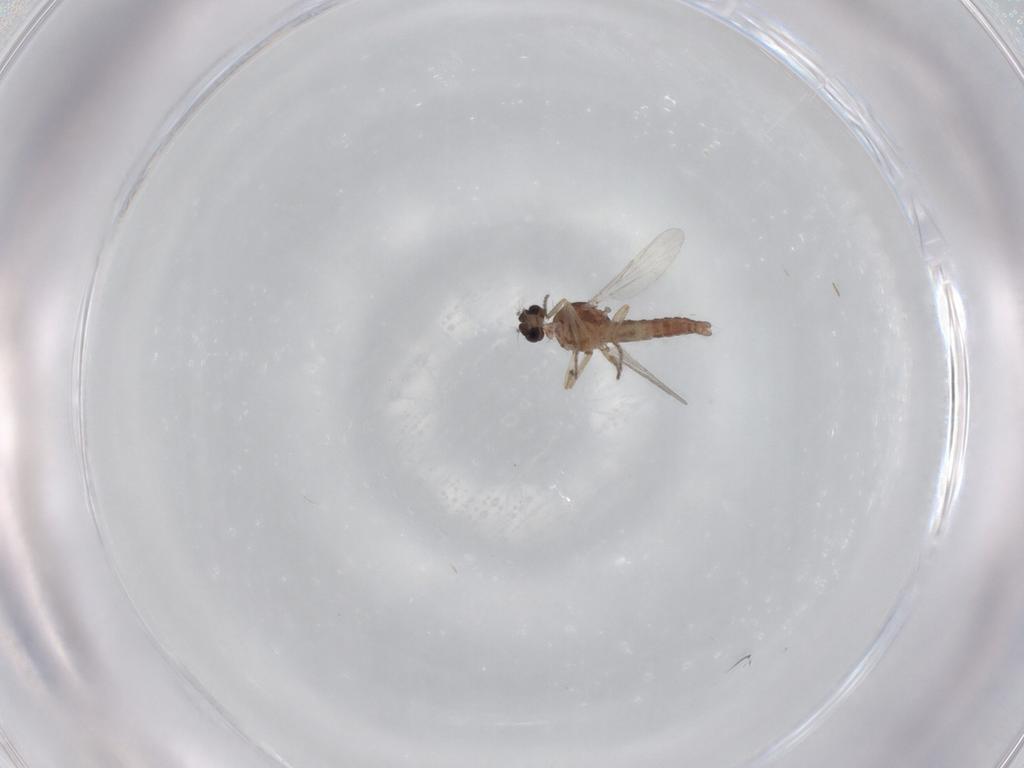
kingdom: Animalia
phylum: Arthropoda
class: Insecta
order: Diptera
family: Ceratopogonidae
